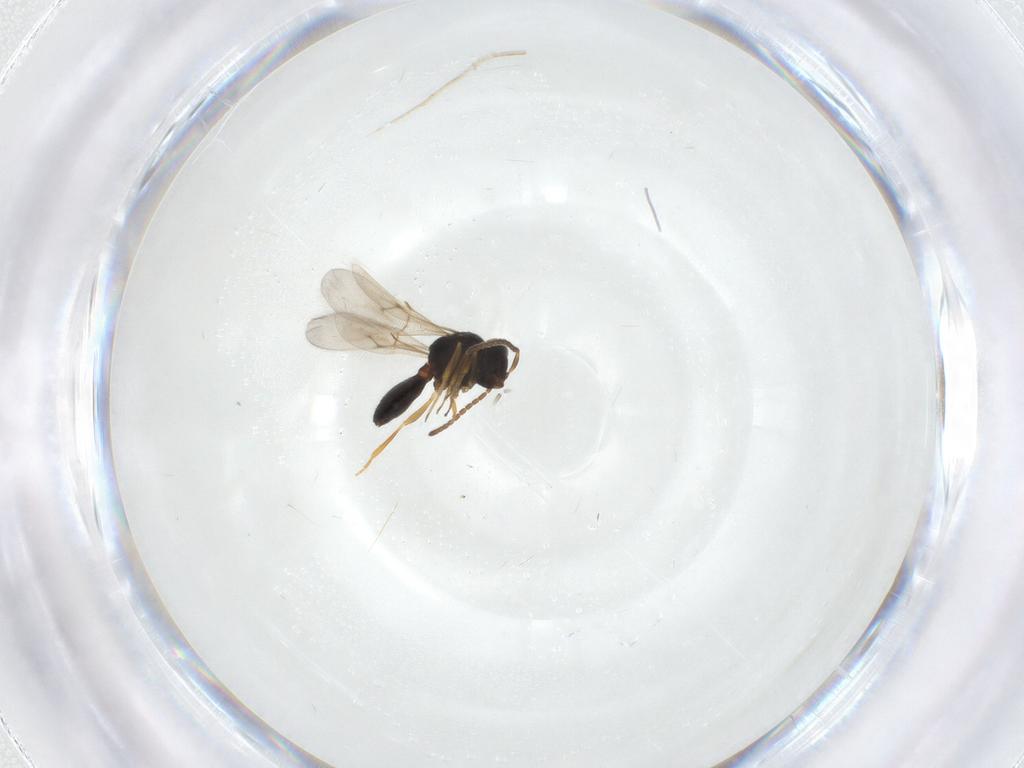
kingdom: Animalia
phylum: Arthropoda
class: Arachnida
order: Araneae
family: Pholcidae
